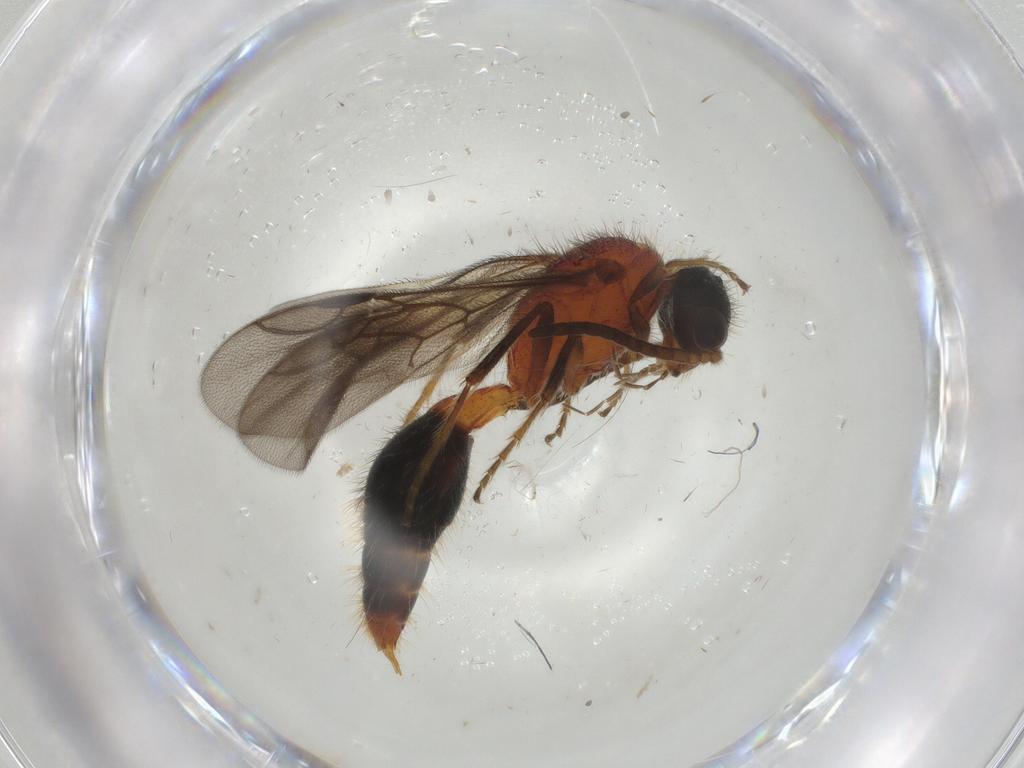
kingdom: Animalia
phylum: Arthropoda
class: Insecta
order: Hymenoptera
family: Mutillidae
